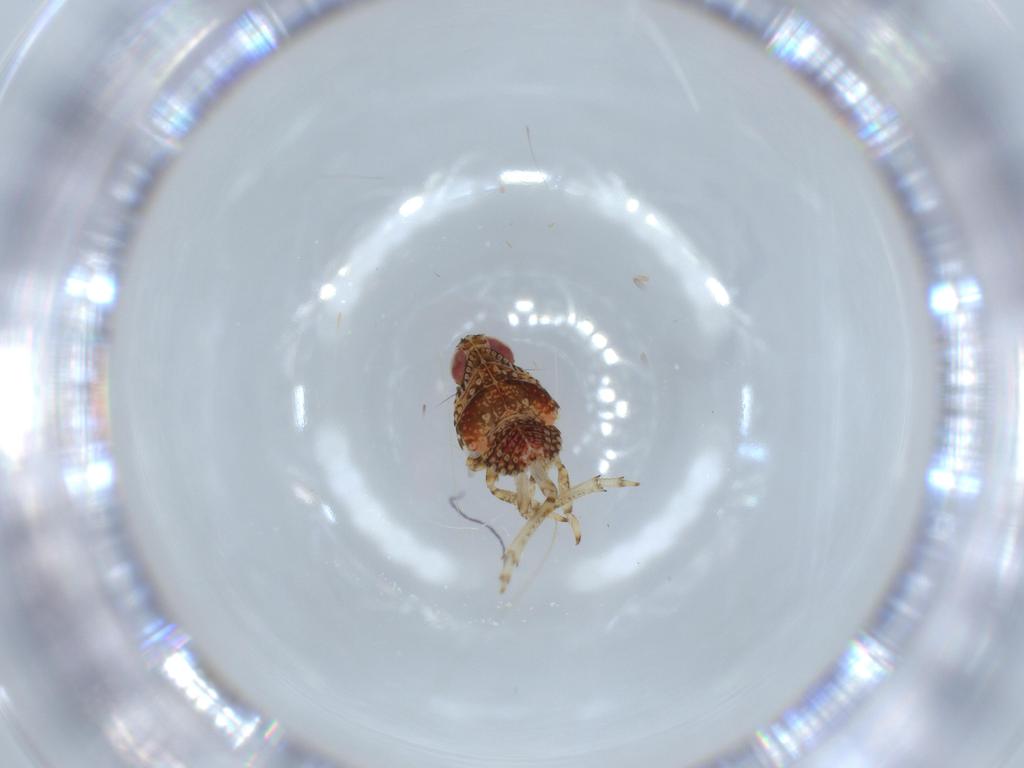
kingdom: Animalia
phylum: Arthropoda
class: Insecta
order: Hemiptera
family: Issidae
